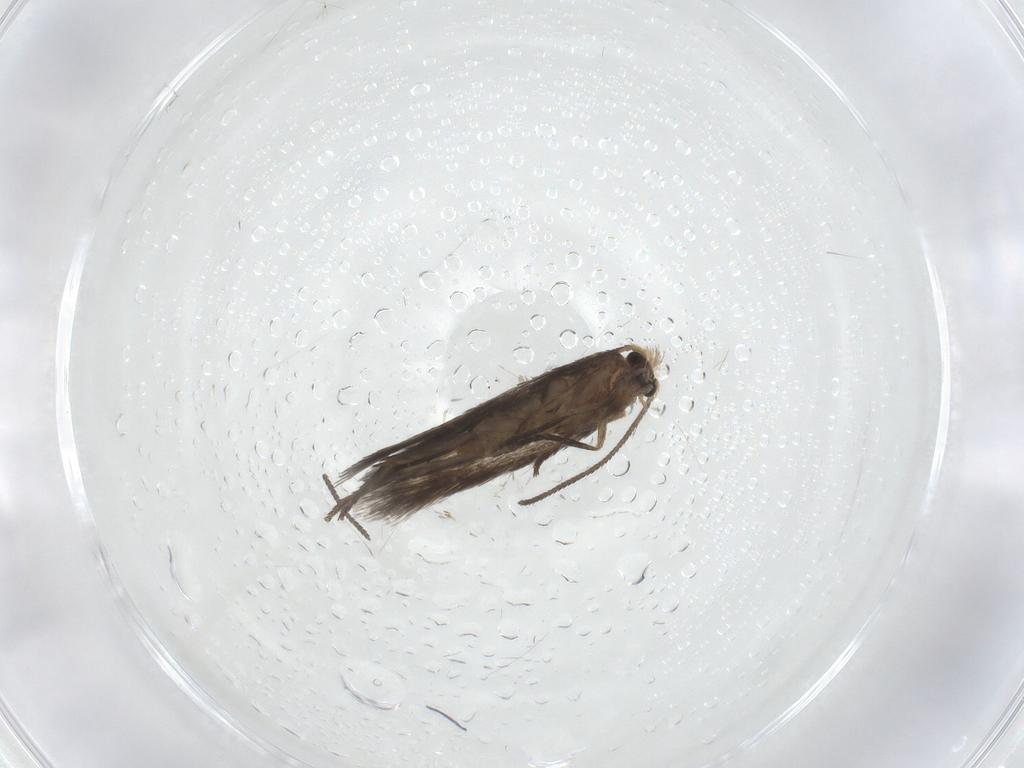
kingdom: Animalia
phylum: Arthropoda
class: Insecta
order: Lepidoptera
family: Nepticulidae
